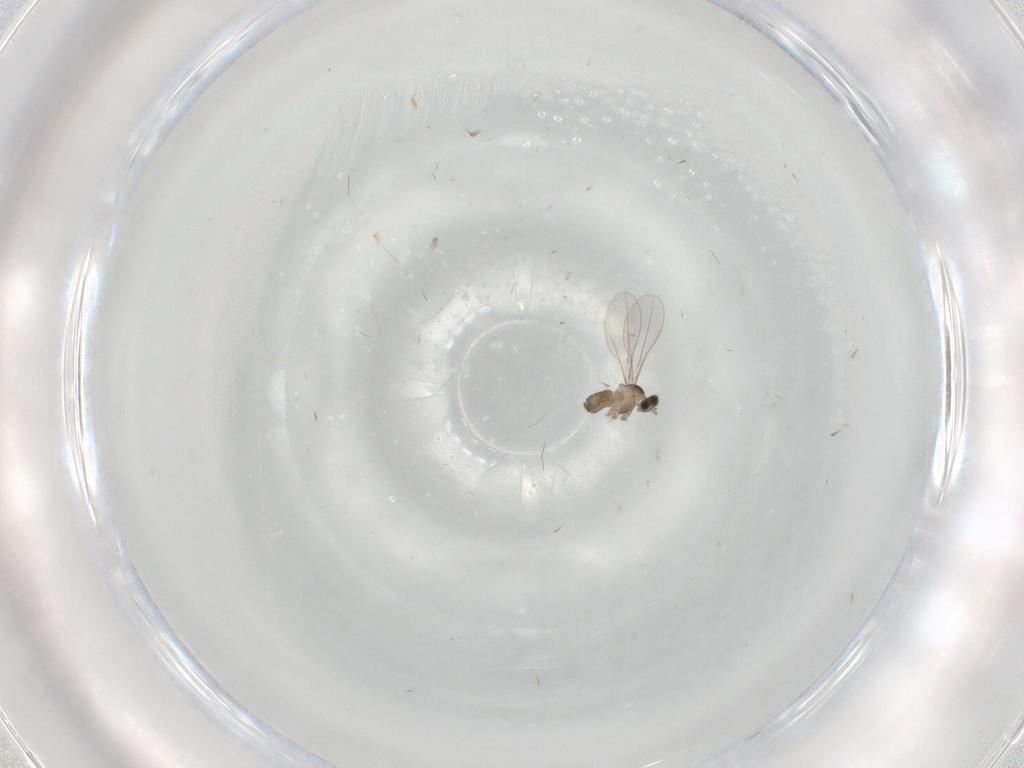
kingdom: Animalia
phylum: Arthropoda
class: Insecta
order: Diptera
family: Cecidomyiidae
